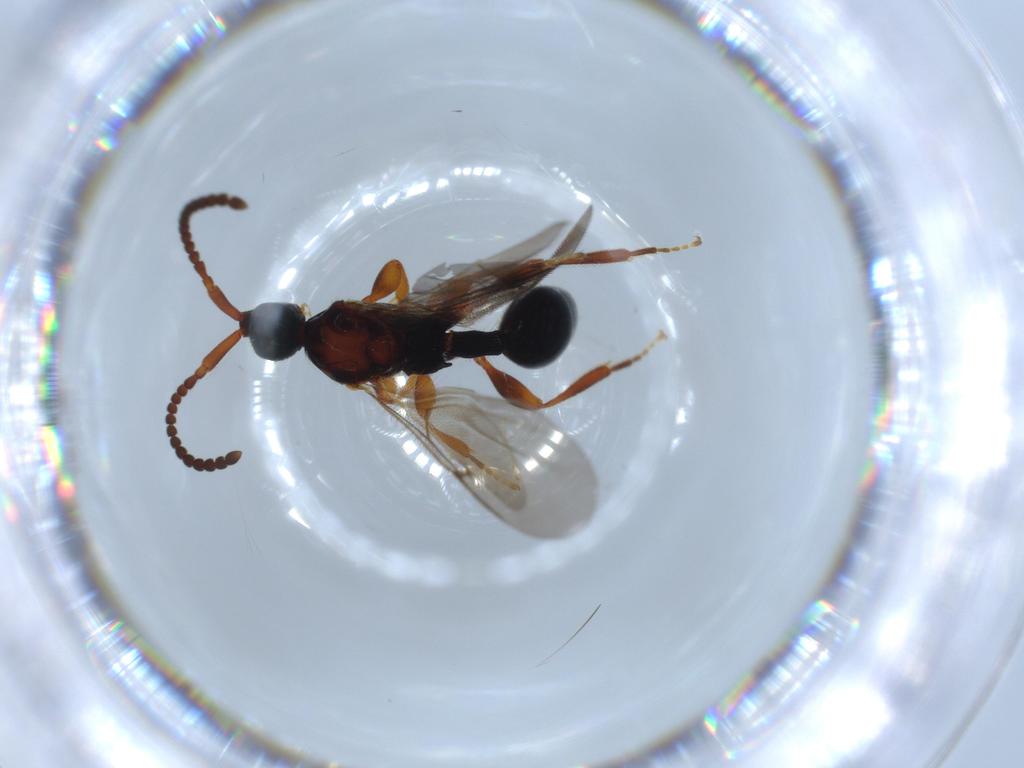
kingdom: Animalia
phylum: Arthropoda
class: Insecta
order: Hymenoptera
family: Diapriidae
